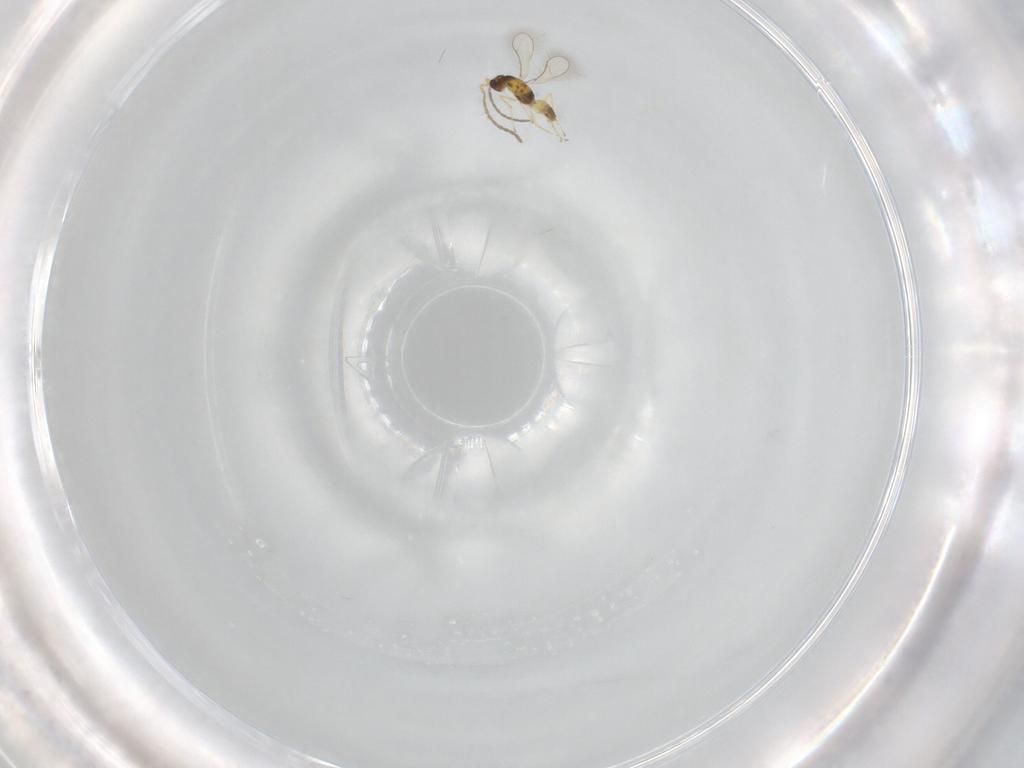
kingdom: Animalia
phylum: Arthropoda
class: Insecta
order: Hymenoptera
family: Mymaridae
